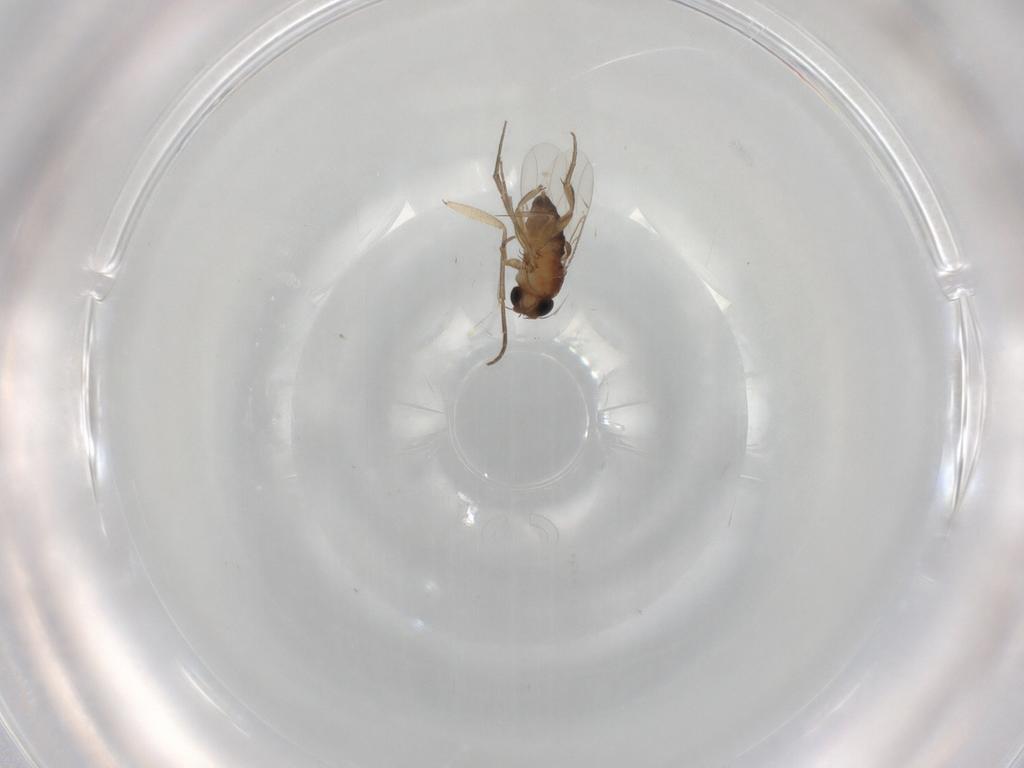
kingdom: Animalia
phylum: Arthropoda
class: Insecta
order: Diptera
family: Phoridae
